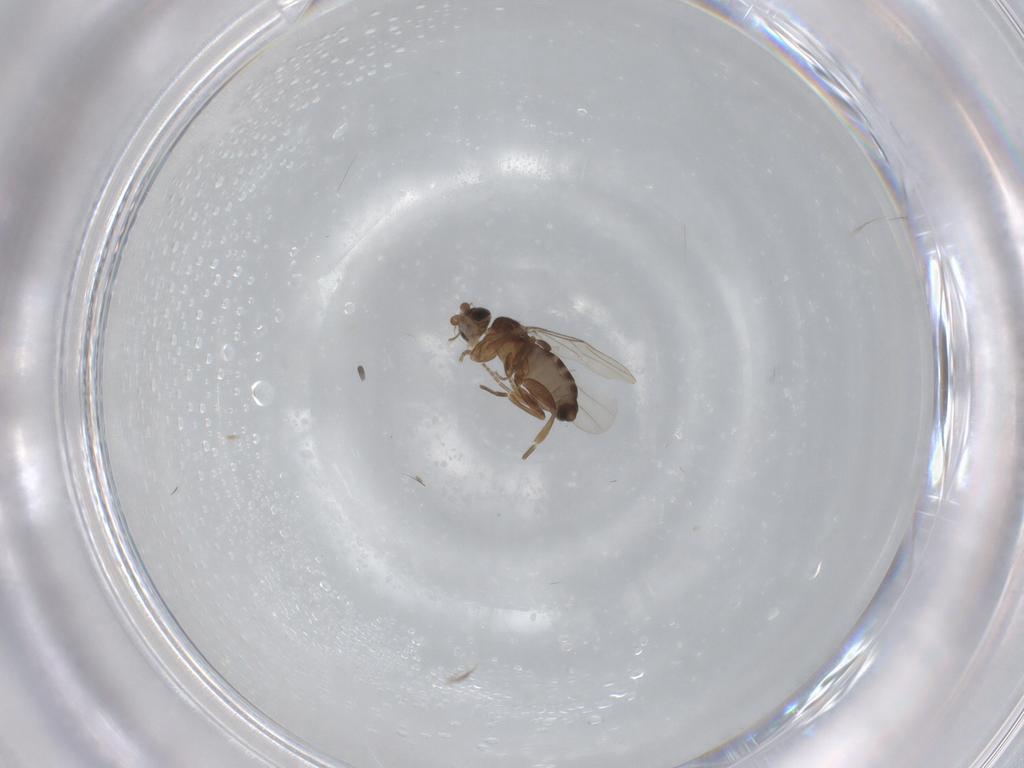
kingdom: Animalia
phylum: Arthropoda
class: Insecta
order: Diptera
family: Phoridae
